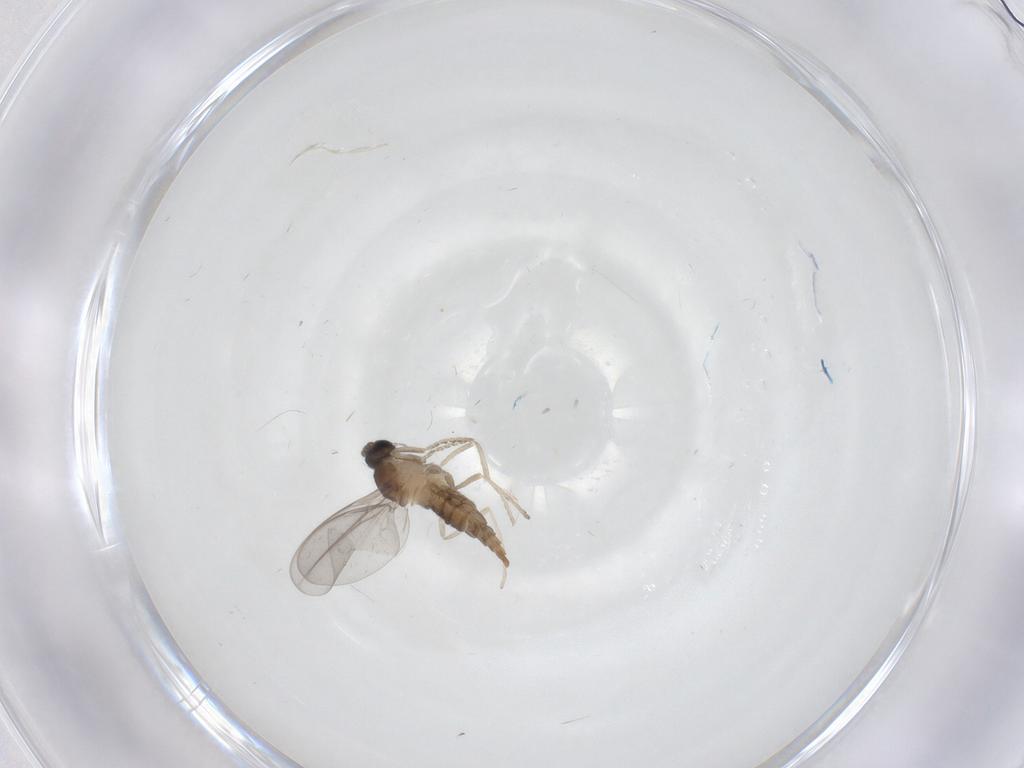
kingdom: Animalia
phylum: Arthropoda
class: Insecta
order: Diptera
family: Cecidomyiidae
